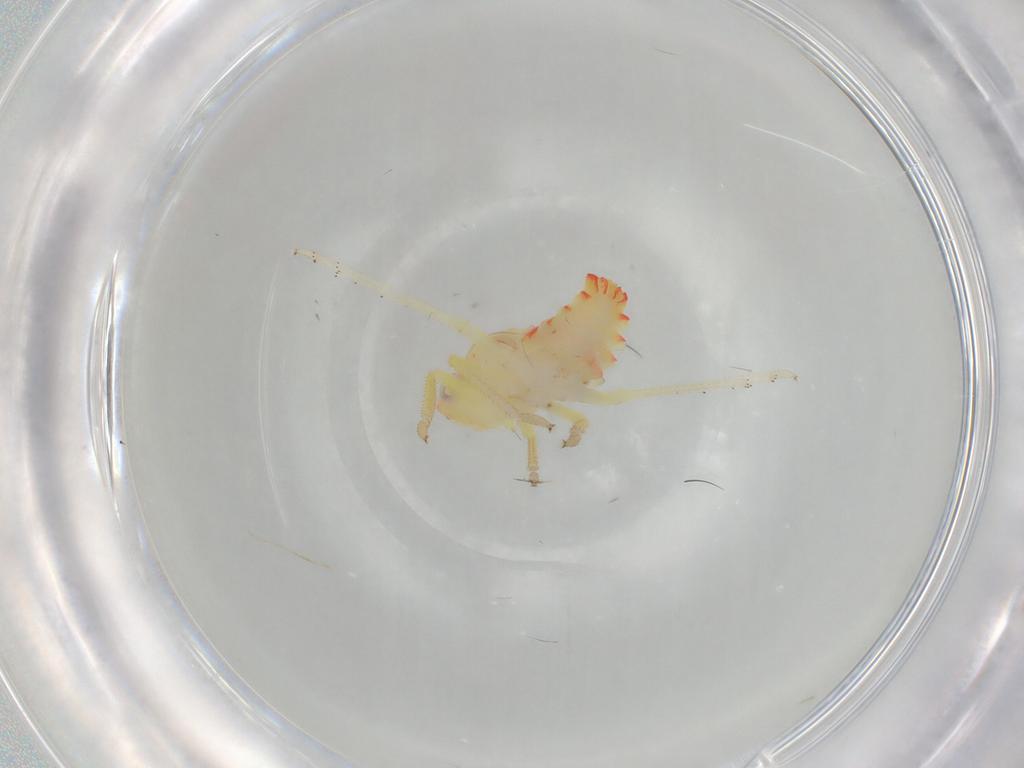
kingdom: Animalia
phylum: Arthropoda
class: Insecta
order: Hemiptera
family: Tropiduchidae
